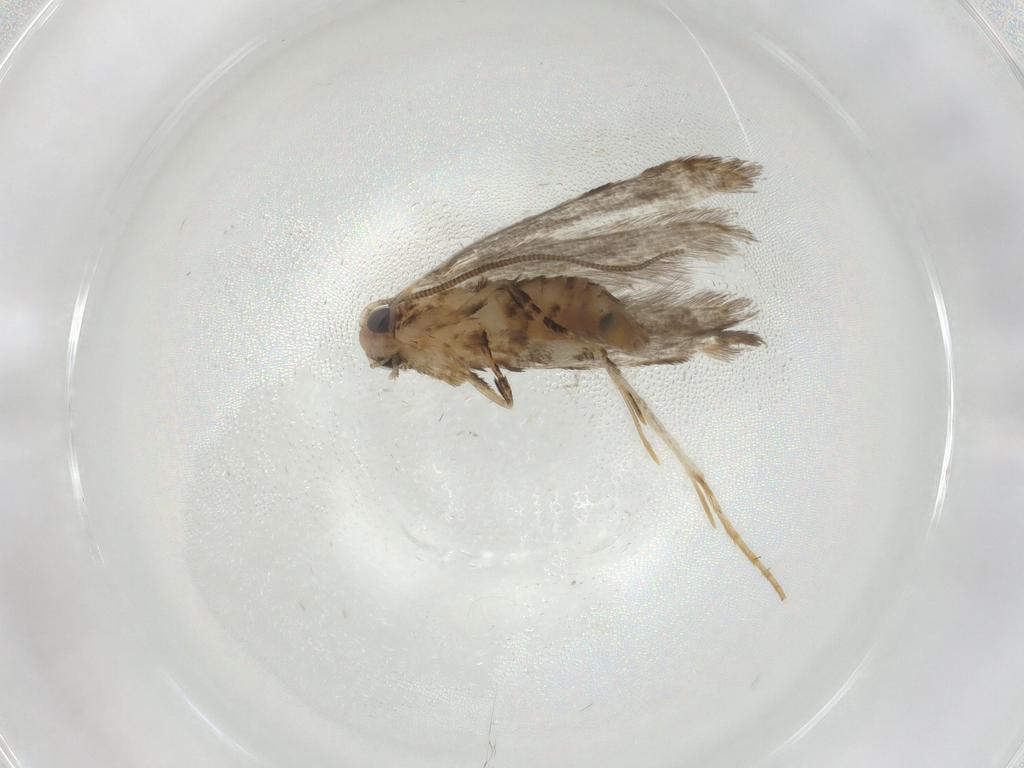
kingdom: Animalia
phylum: Arthropoda
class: Insecta
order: Lepidoptera
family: Tineidae
